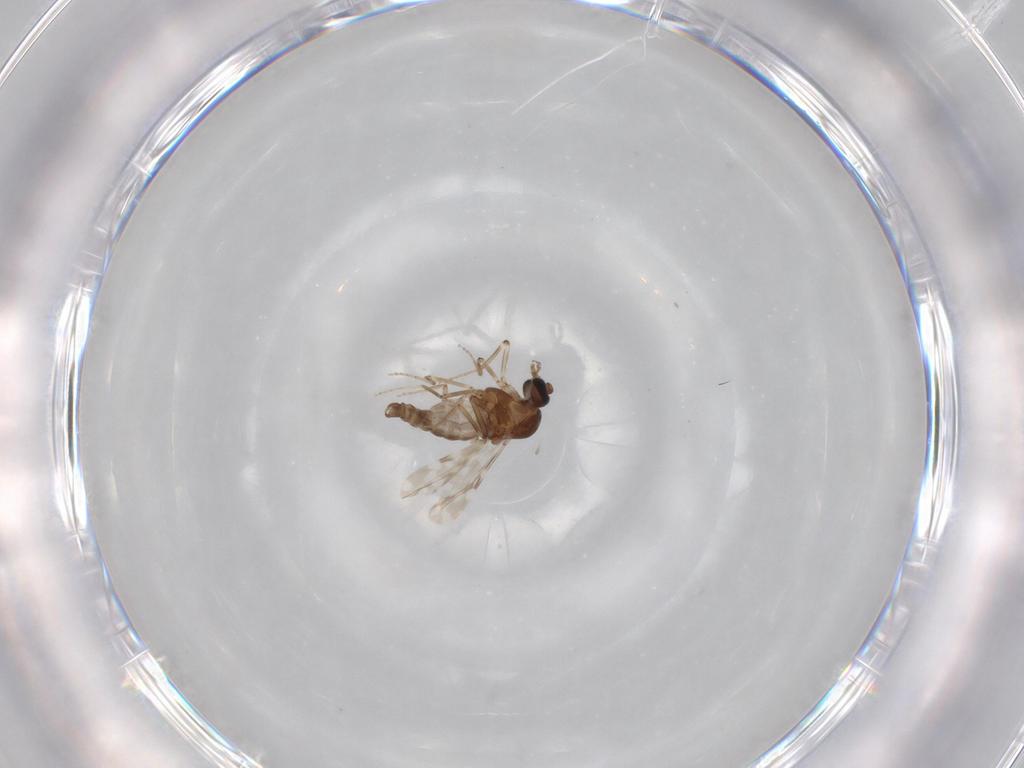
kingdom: Animalia
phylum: Arthropoda
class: Insecta
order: Diptera
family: Ceratopogonidae
